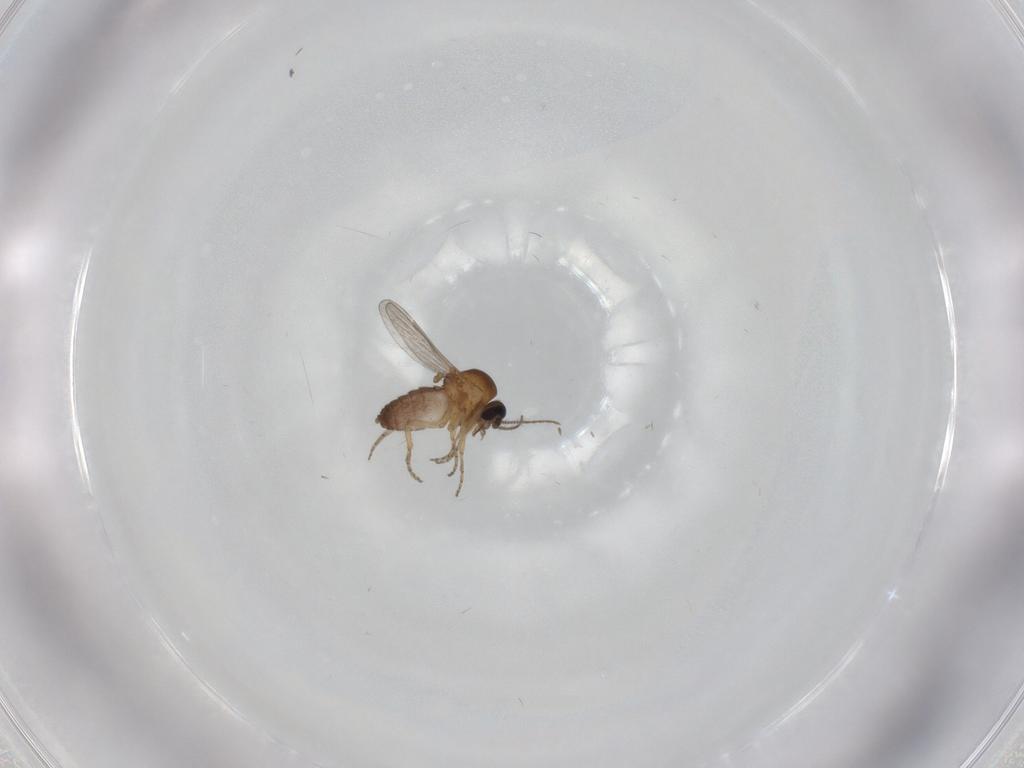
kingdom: Animalia
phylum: Arthropoda
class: Insecta
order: Diptera
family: Ceratopogonidae
